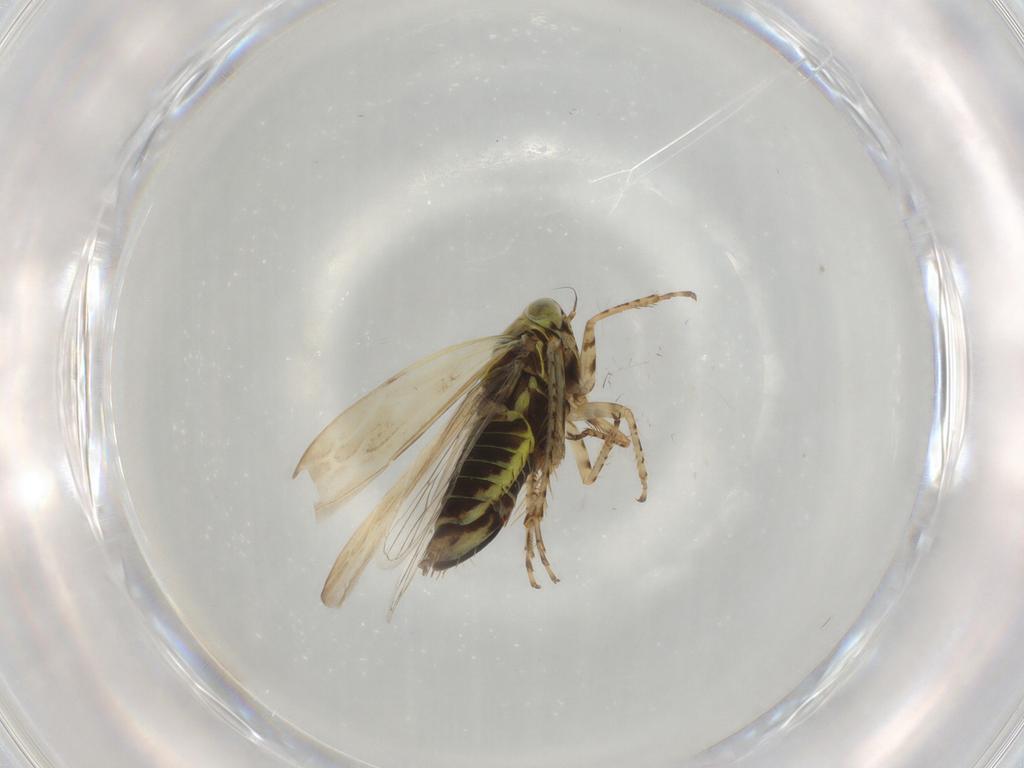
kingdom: Animalia
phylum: Arthropoda
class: Insecta
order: Hemiptera
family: Cicadellidae
